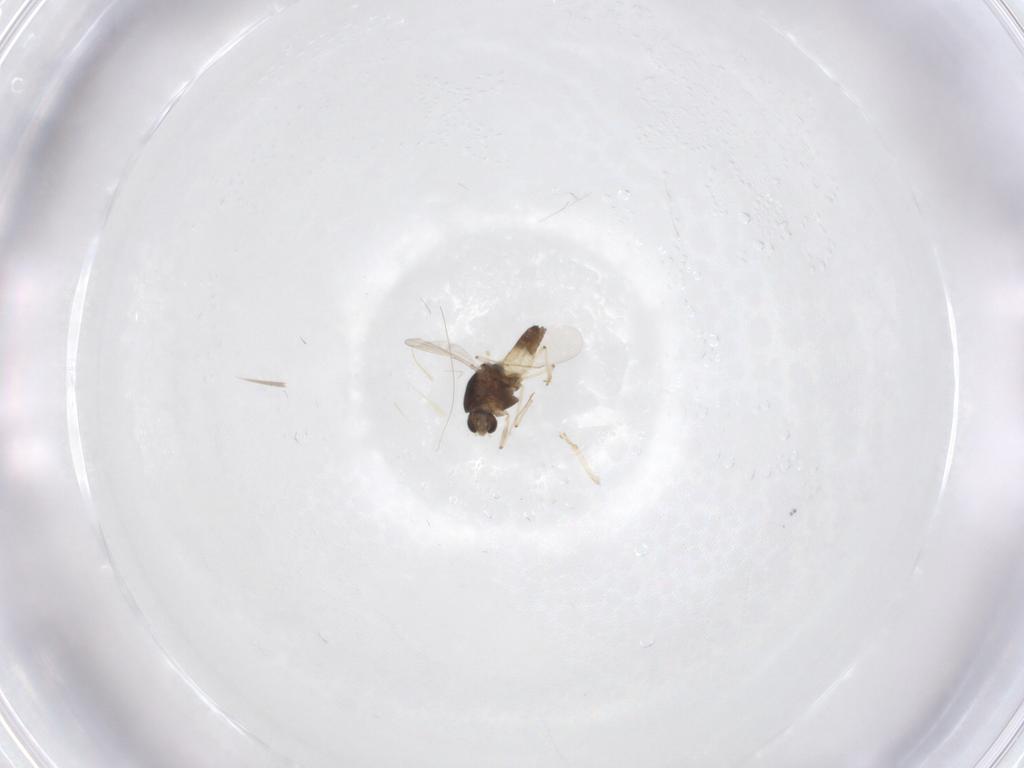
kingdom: Animalia
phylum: Arthropoda
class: Insecta
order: Diptera
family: Chironomidae
